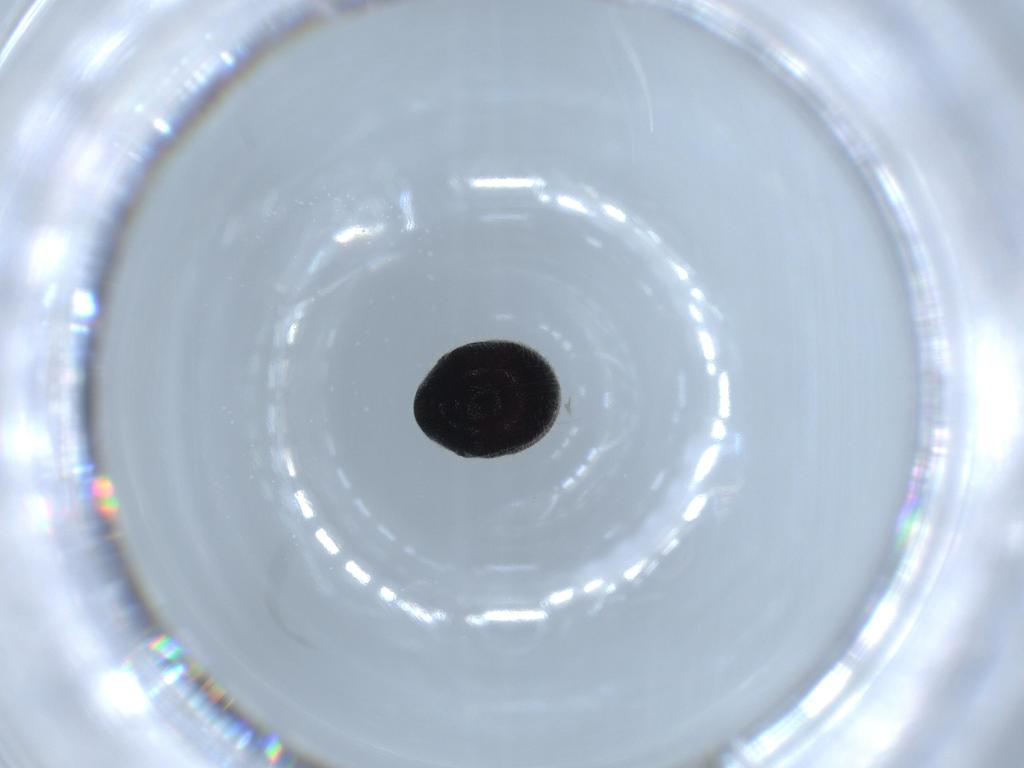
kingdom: Animalia
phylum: Arthropoda
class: Insecta
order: Coleoptera
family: Ptinidae
